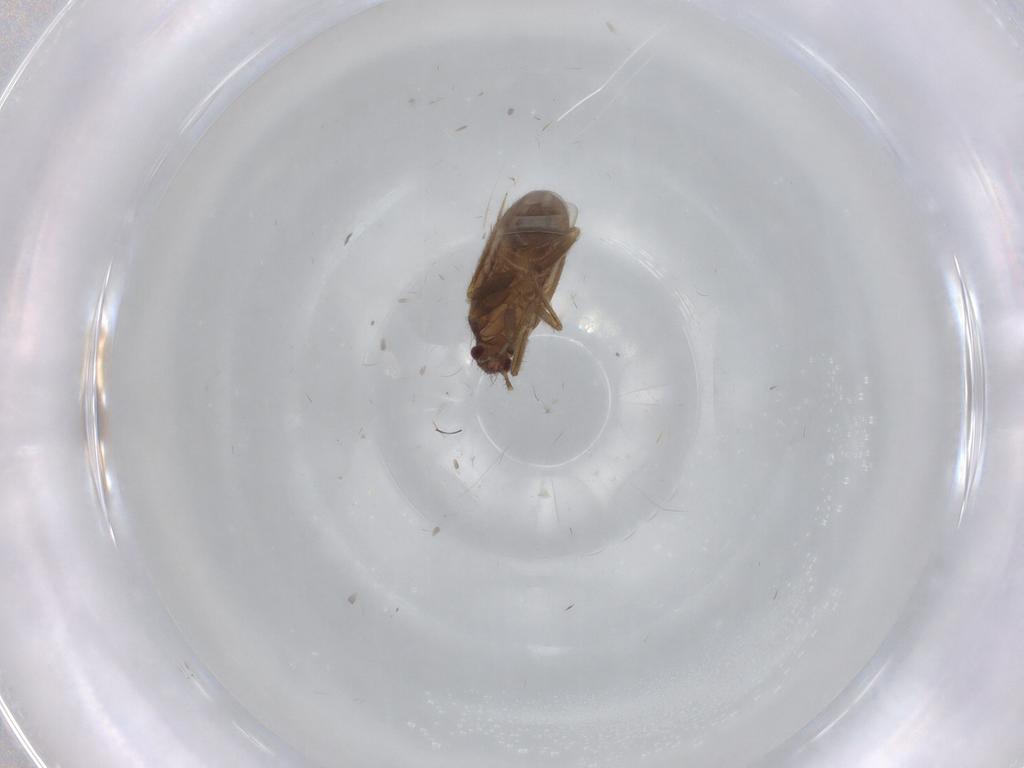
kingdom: Animalia
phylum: Arthropoda
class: Insecta
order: Hemiptera
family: Ceratocombidae
